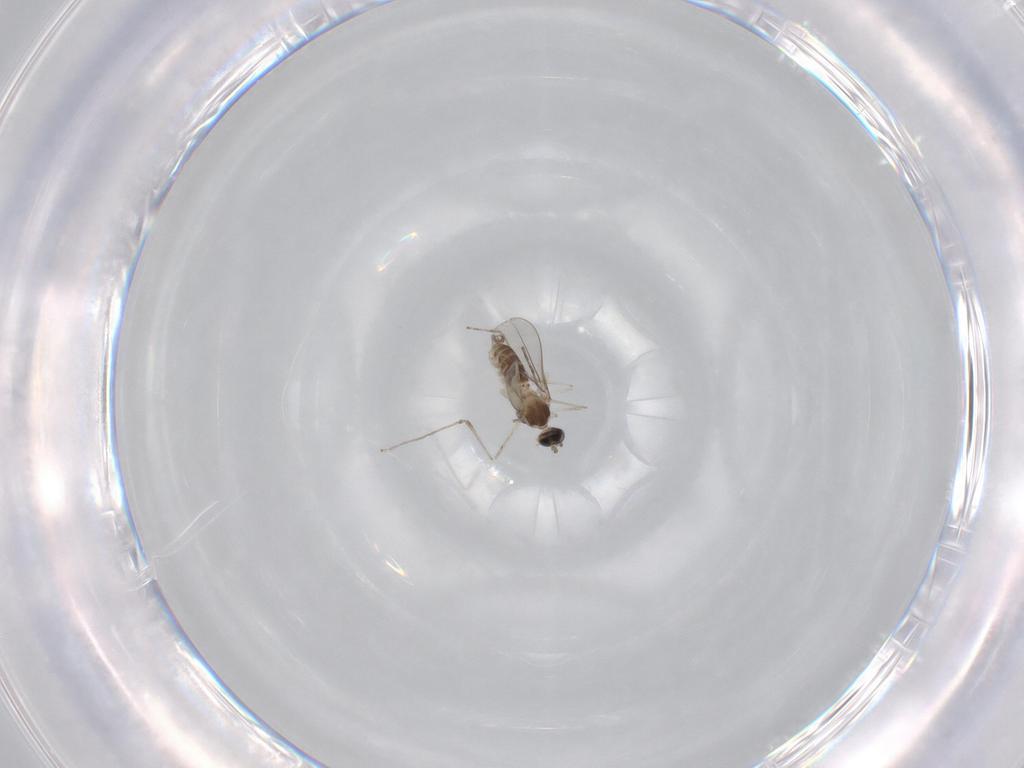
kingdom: Animalia
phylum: Arthropoda
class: Insecta
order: Diptera
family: Cecidomyiidae
